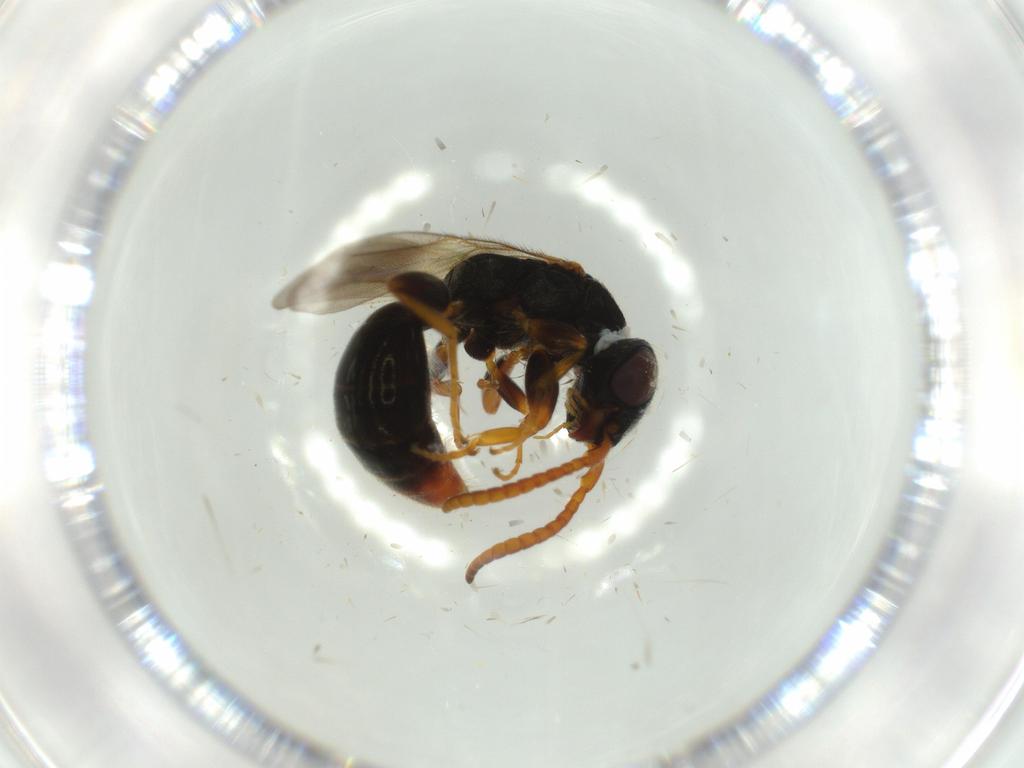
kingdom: Animalia
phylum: Arthropoda
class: Insecta
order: Hymenoptera
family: Bethylidae
